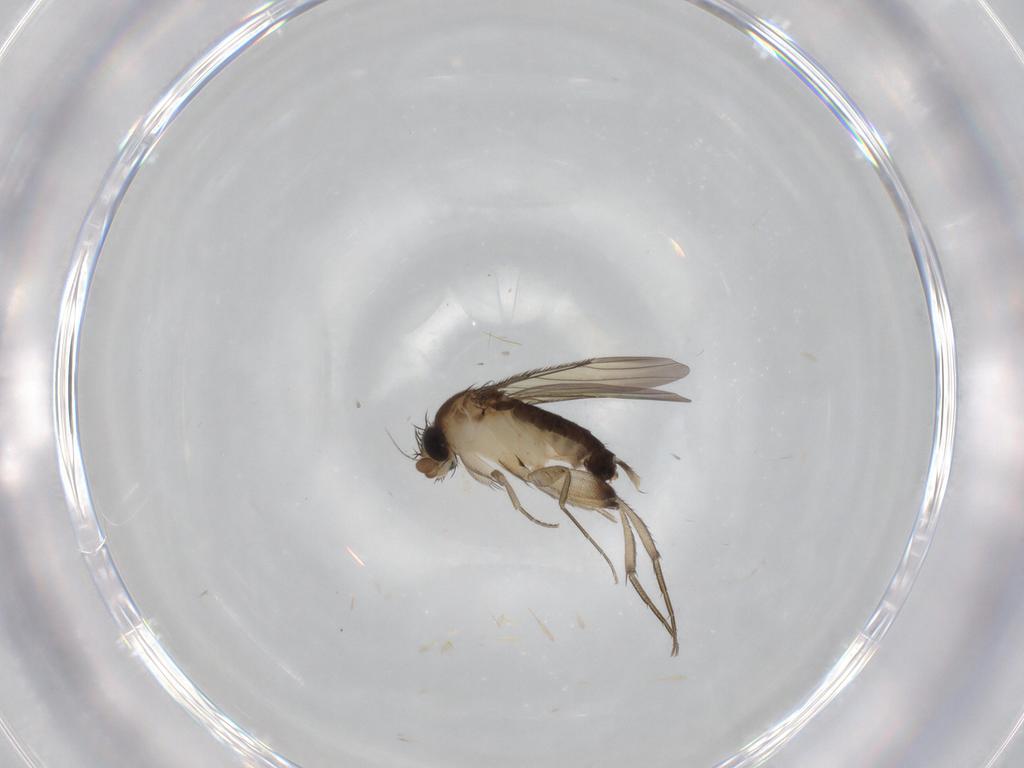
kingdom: Animalia
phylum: Arthropoda
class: Insecta
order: Diptera
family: Phoridae
